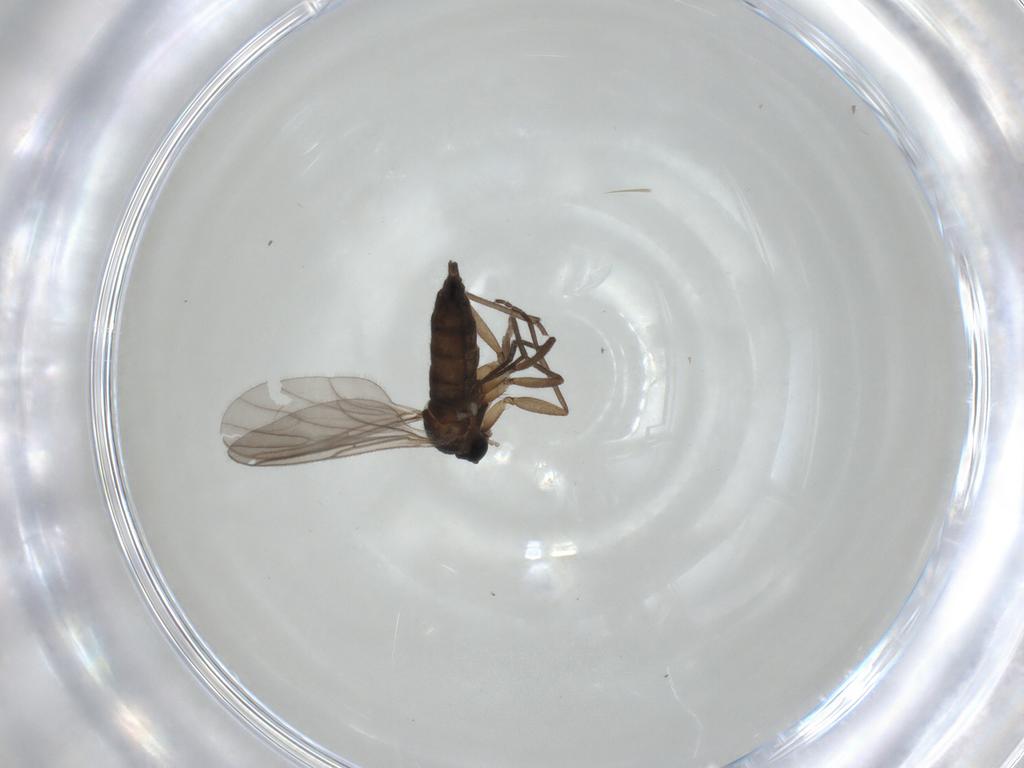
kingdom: Animalia
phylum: Arthropoda
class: Insecta
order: Diptera
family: Sciaridae
